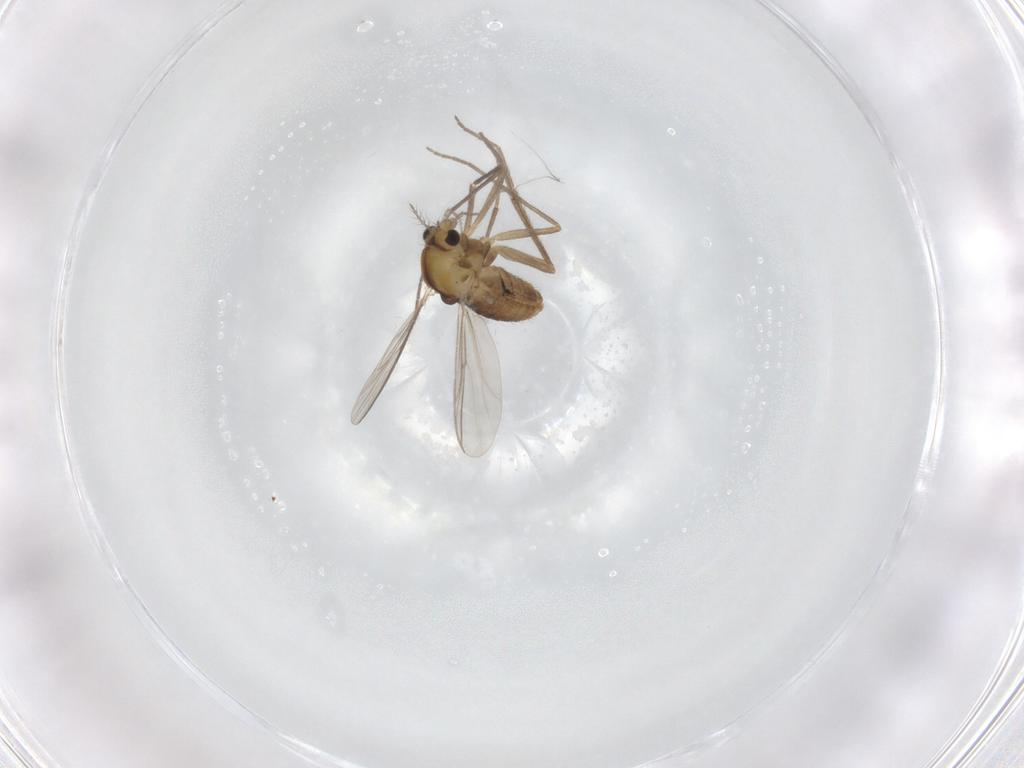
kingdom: Animalia
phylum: Arthropoda
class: Insecta
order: Diptera
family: Chironomidae
